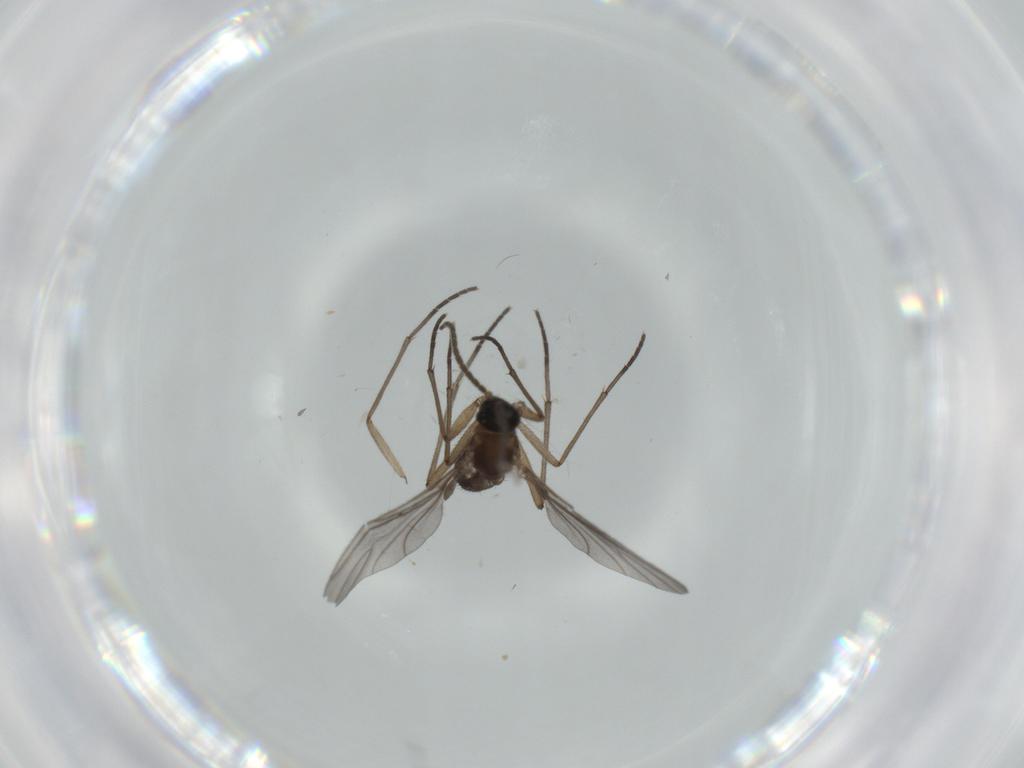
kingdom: Animalia
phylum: Arthropoda
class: Insecta
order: Diptera
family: Sciaridae
